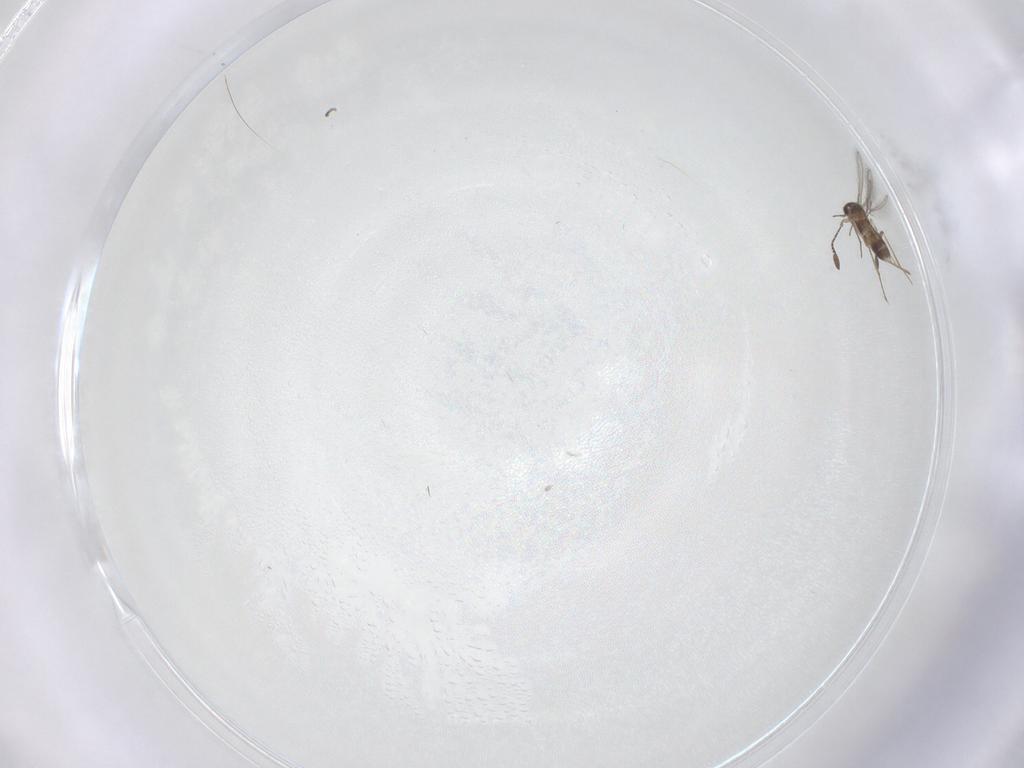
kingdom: Animalia
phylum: Arthropoda
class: Insecta
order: Hymenoptera
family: Mymaridae
